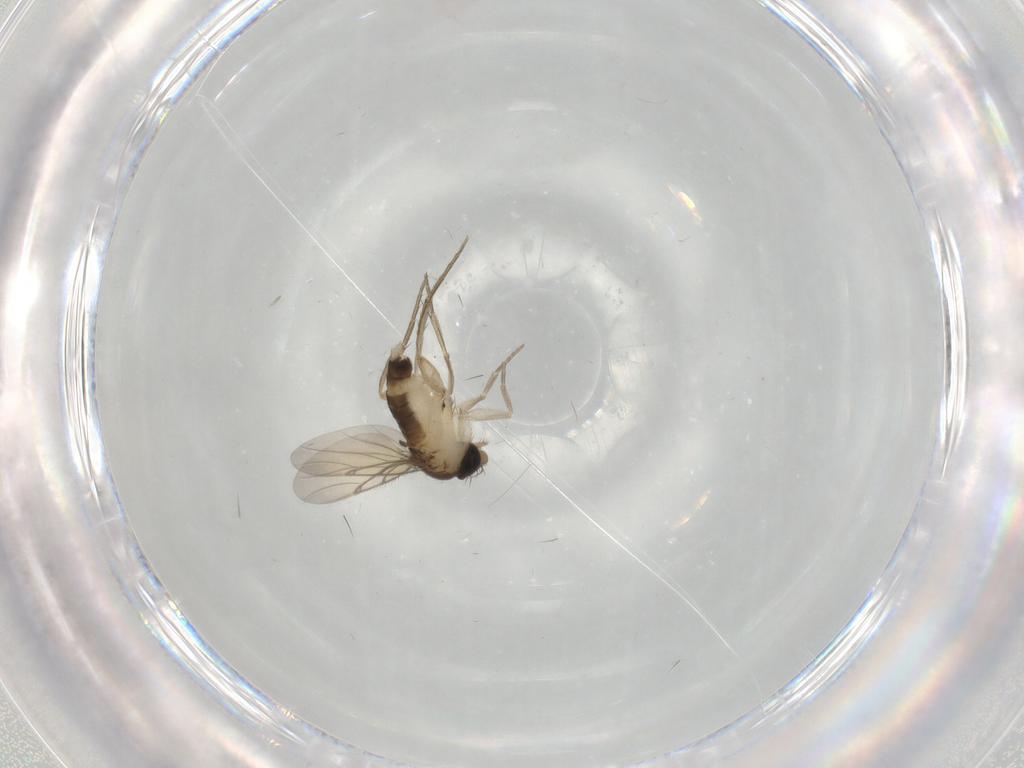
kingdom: Animalia
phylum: Arthropoda
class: Insecta
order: Diptera
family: Cecidomyiidae
